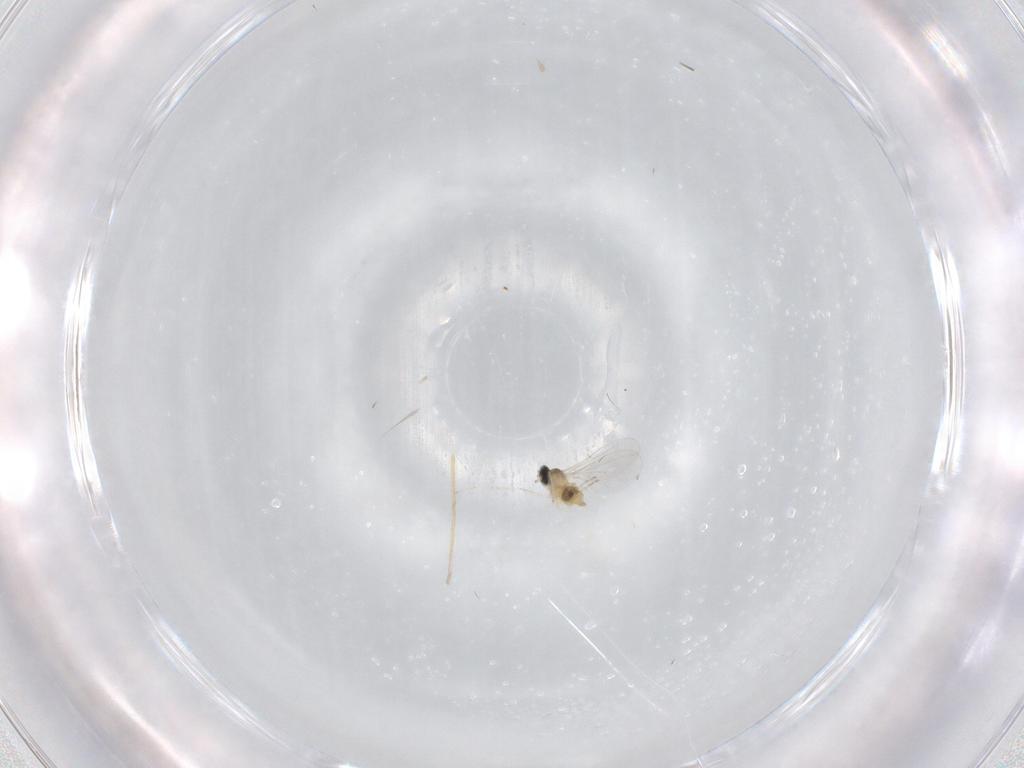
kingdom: Animalia
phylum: Arthropoda
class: Insecta
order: Diptera
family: Cecidomyiidae
